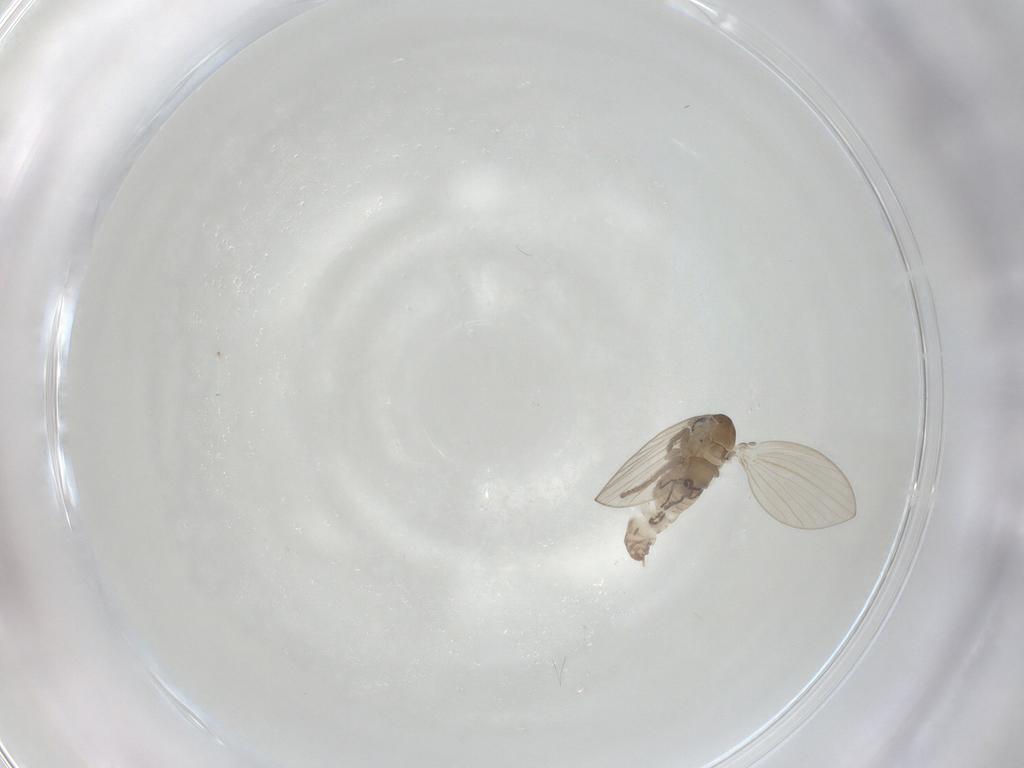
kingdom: Animalia
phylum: Arthropoda
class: Insecta
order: Diptera
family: Psychodidae
